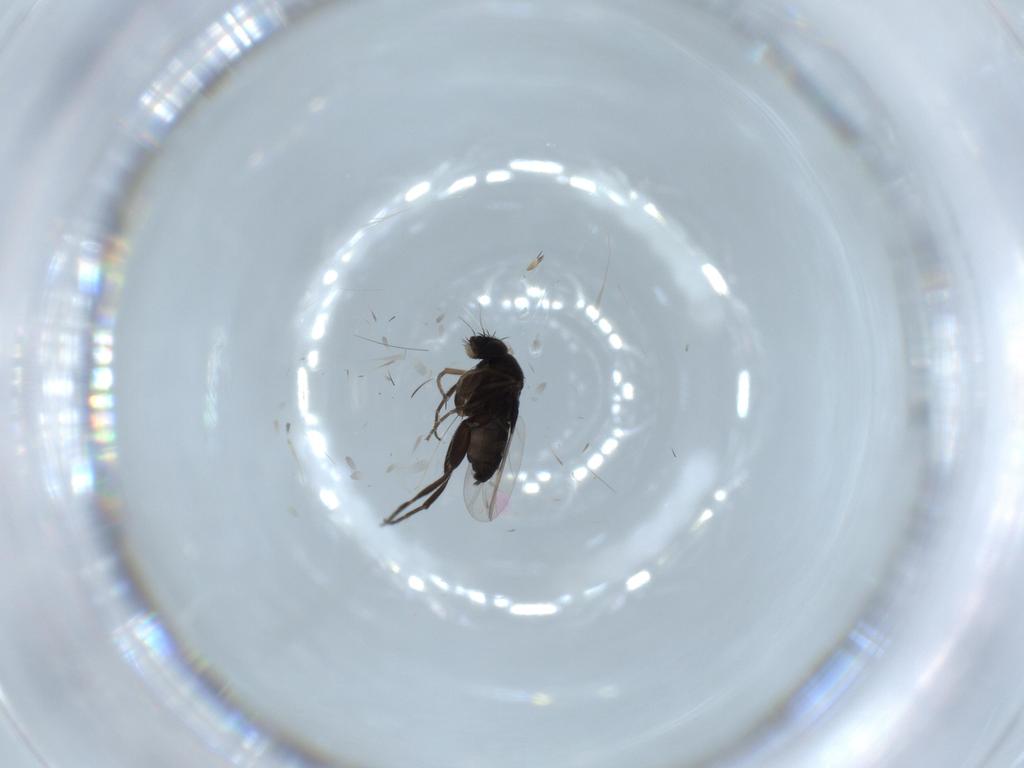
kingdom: Animalia
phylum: Arthropoda
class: Insecta
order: Diptera
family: Phoridae
